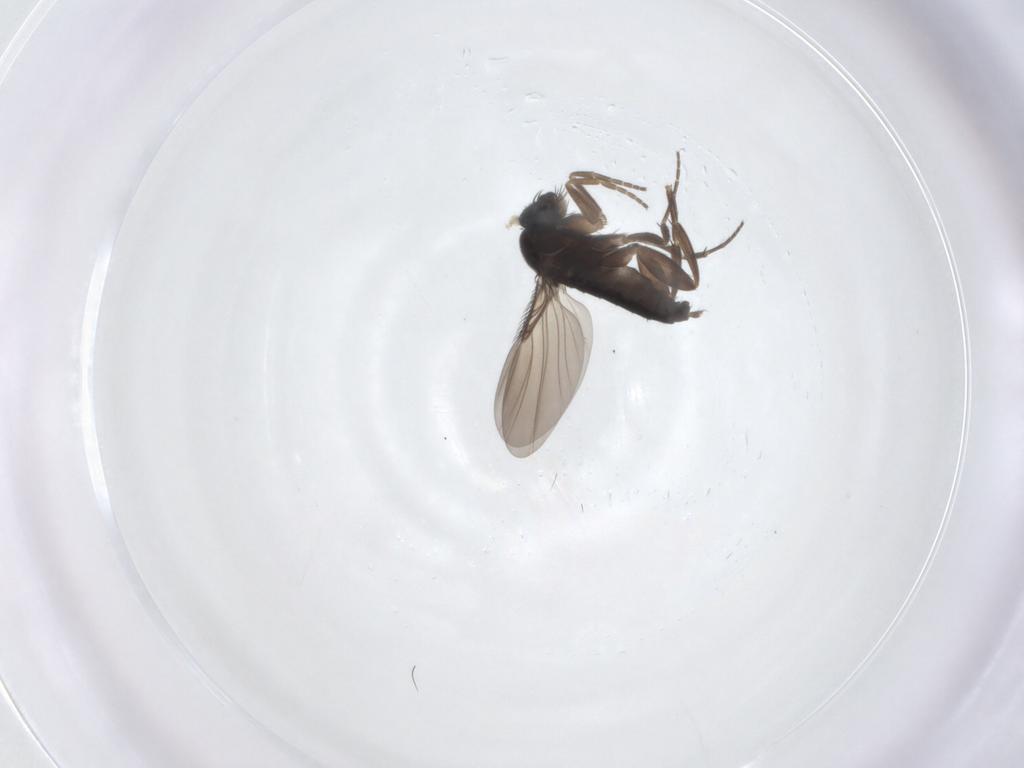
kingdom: Animalia
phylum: Arthropoda
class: Insecta
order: Diptera
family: Phoridae
